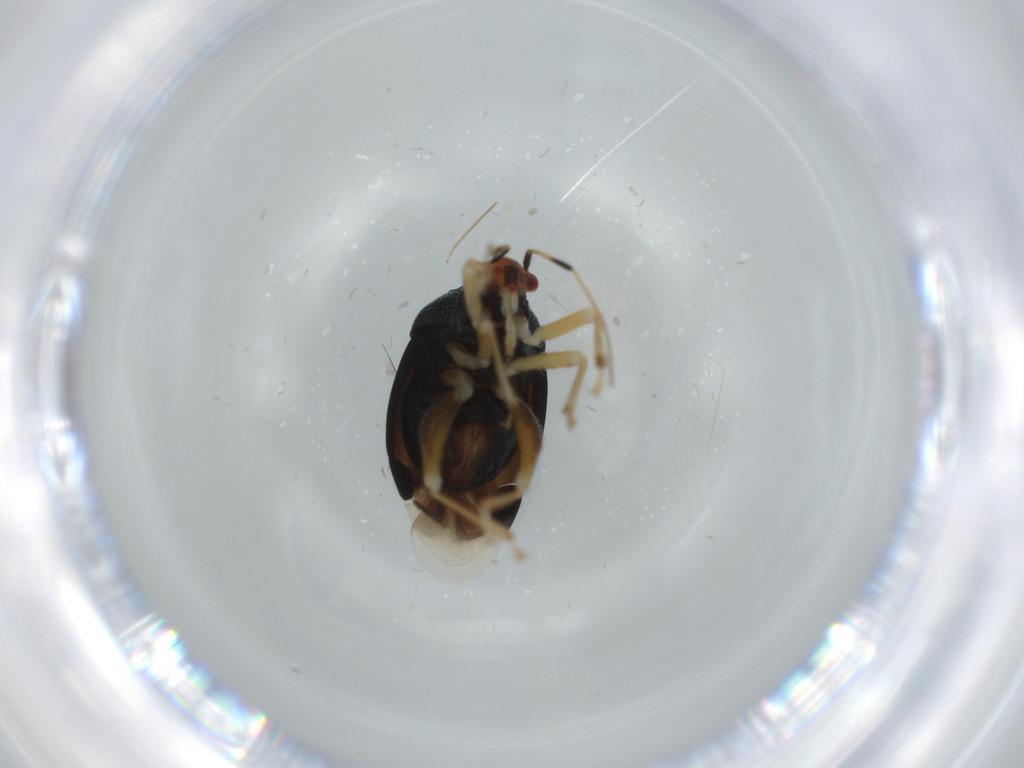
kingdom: Animalia
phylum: Arthropoda
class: Insecta
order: Hemiptera
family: Miridae
